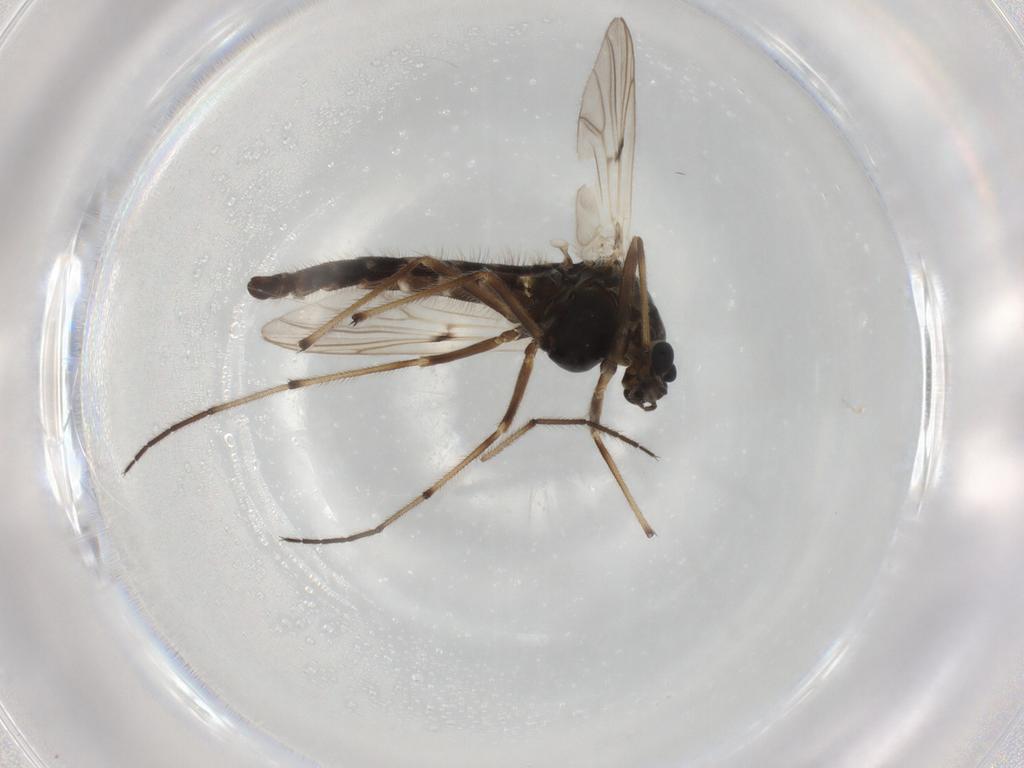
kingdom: Animalia
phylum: Arthropoda
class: Insecta
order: Diptera
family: Chironomidae
